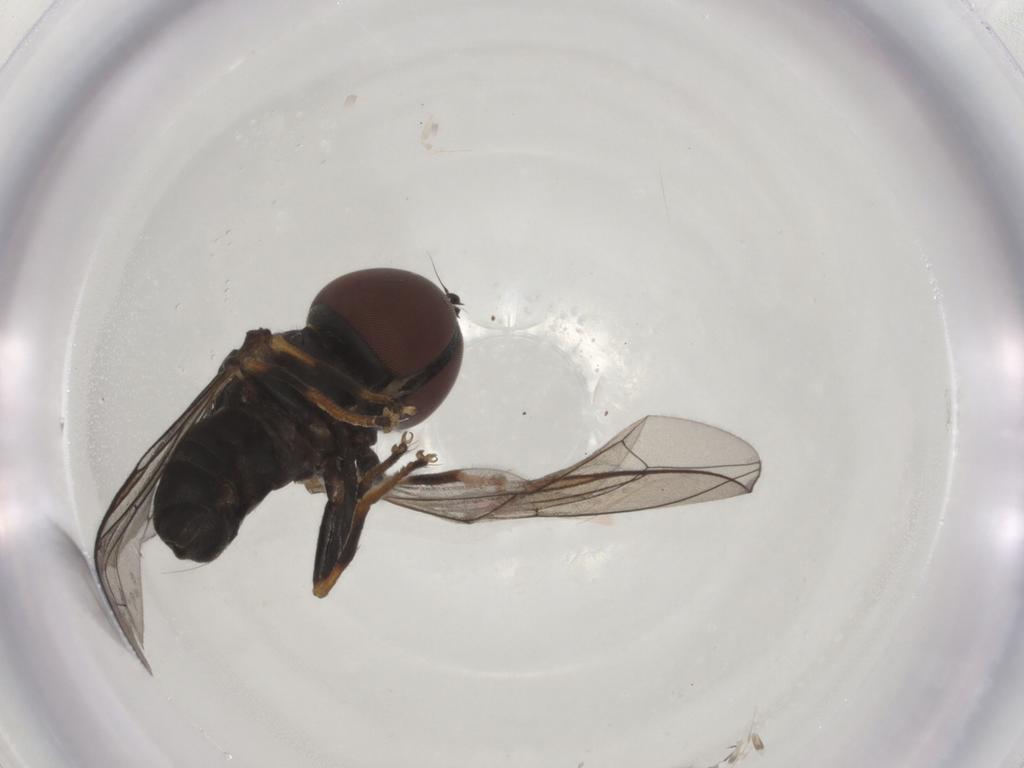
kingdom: Animalia
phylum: Arthropoda
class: Insecta
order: Diptera
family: Pipunculidae
